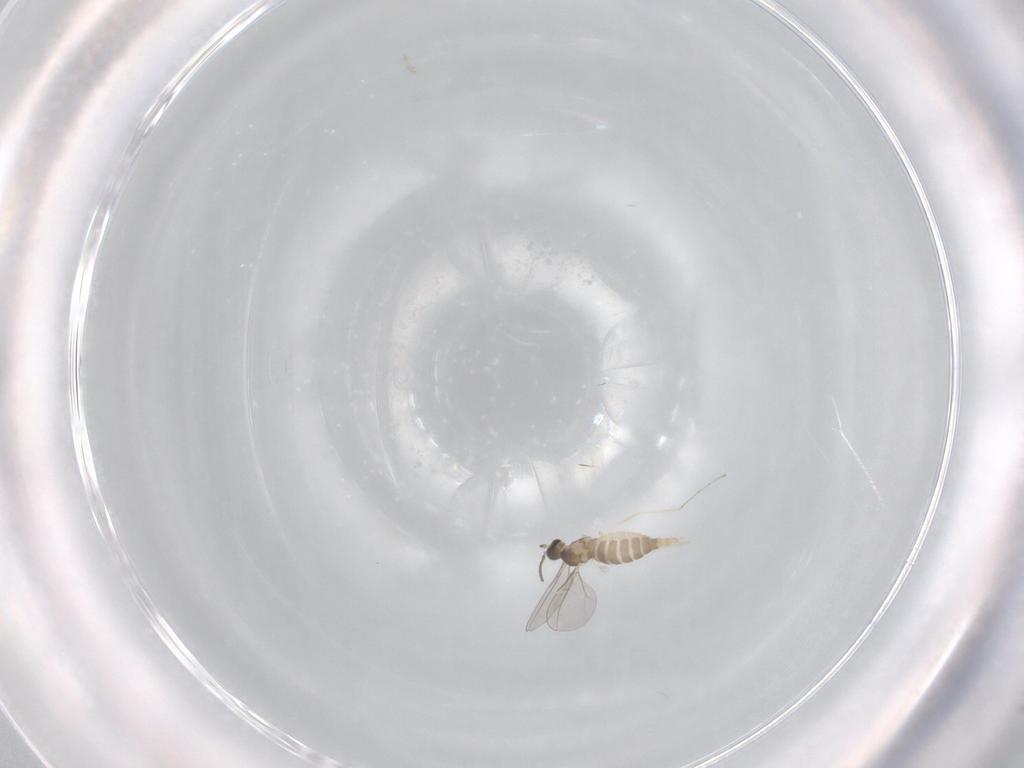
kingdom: Animalia
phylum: Arthropoda
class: Insecta
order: Diptera
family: Cecidomyiidae
